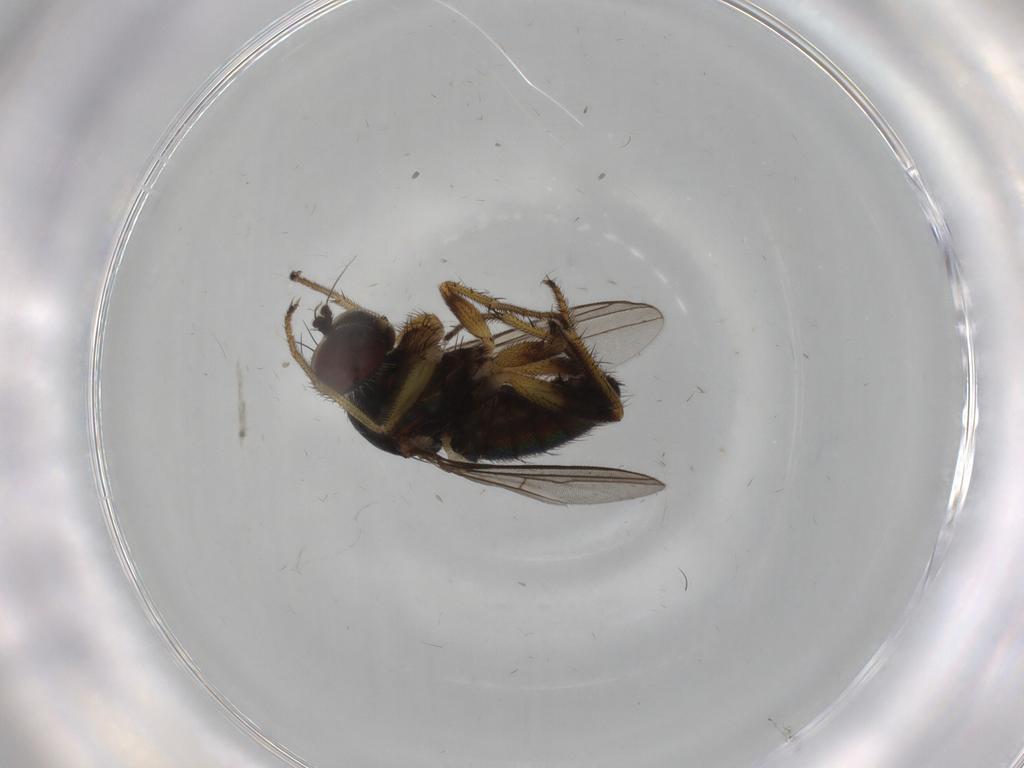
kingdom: Animalia
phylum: Arthropoda
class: Insecta
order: Diptera
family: Dolichopodidae
